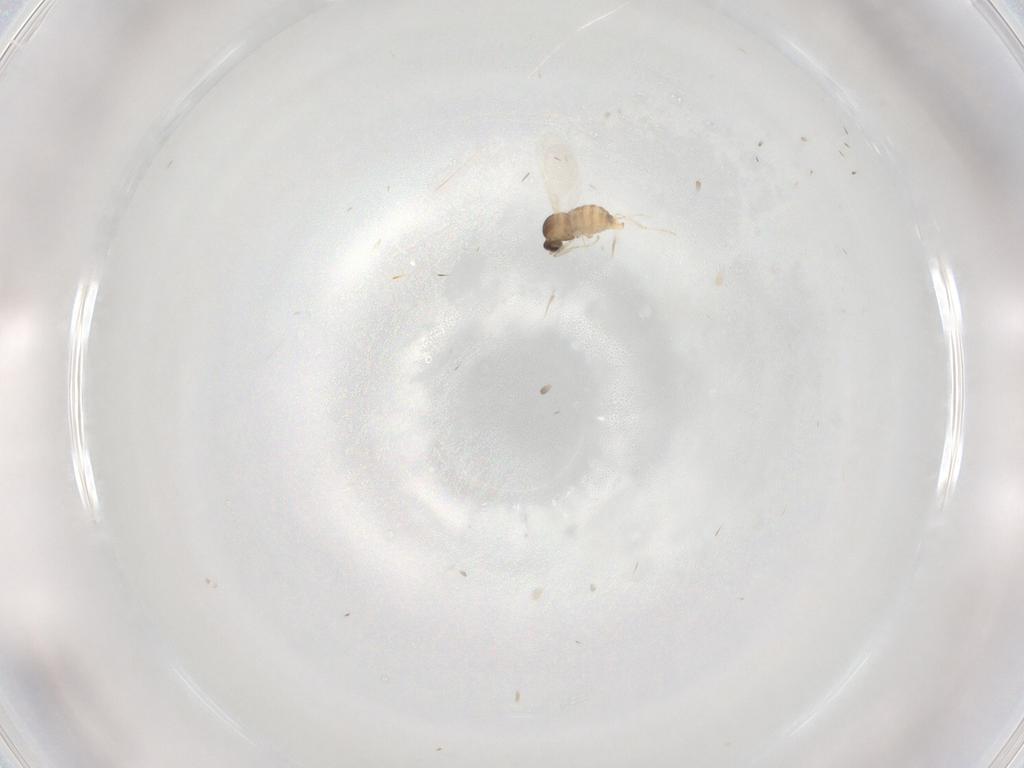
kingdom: Animalia
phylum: Arthropoda
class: Insecta
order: Diptera
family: Cecidomyiidae
